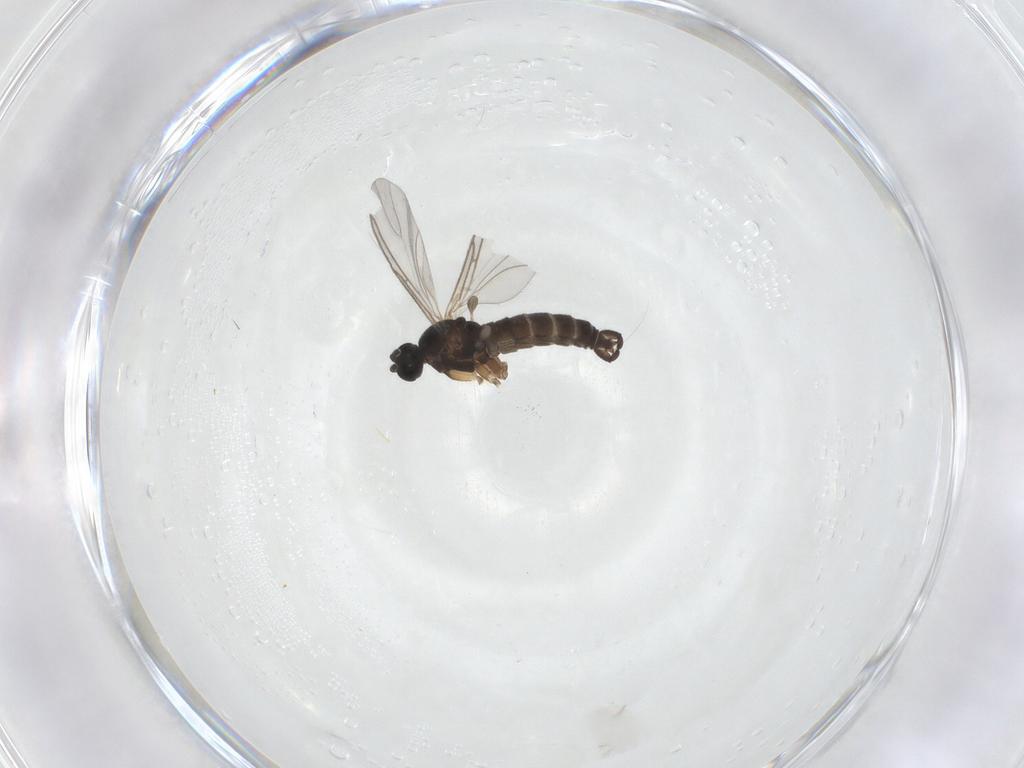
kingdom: Animalia
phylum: Arthropoda
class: Insecta
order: Diptera
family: Sciaridae
